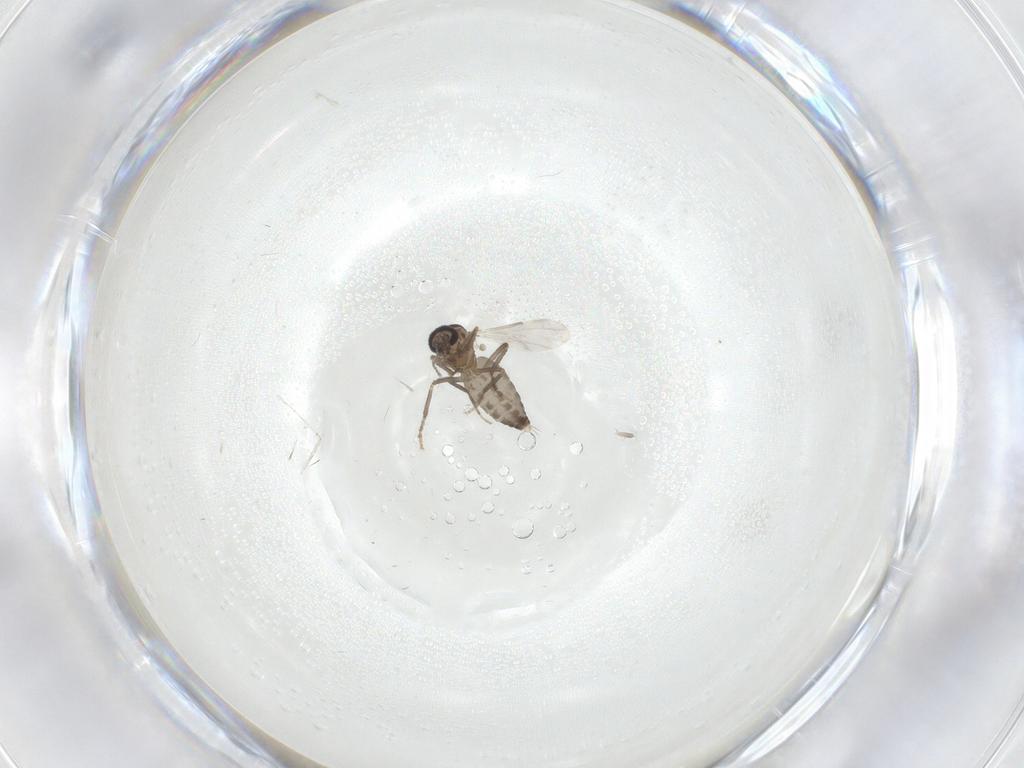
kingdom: Animalia
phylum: Arthropoda
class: Insecta
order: Diptera
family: Ceratopogonidae
